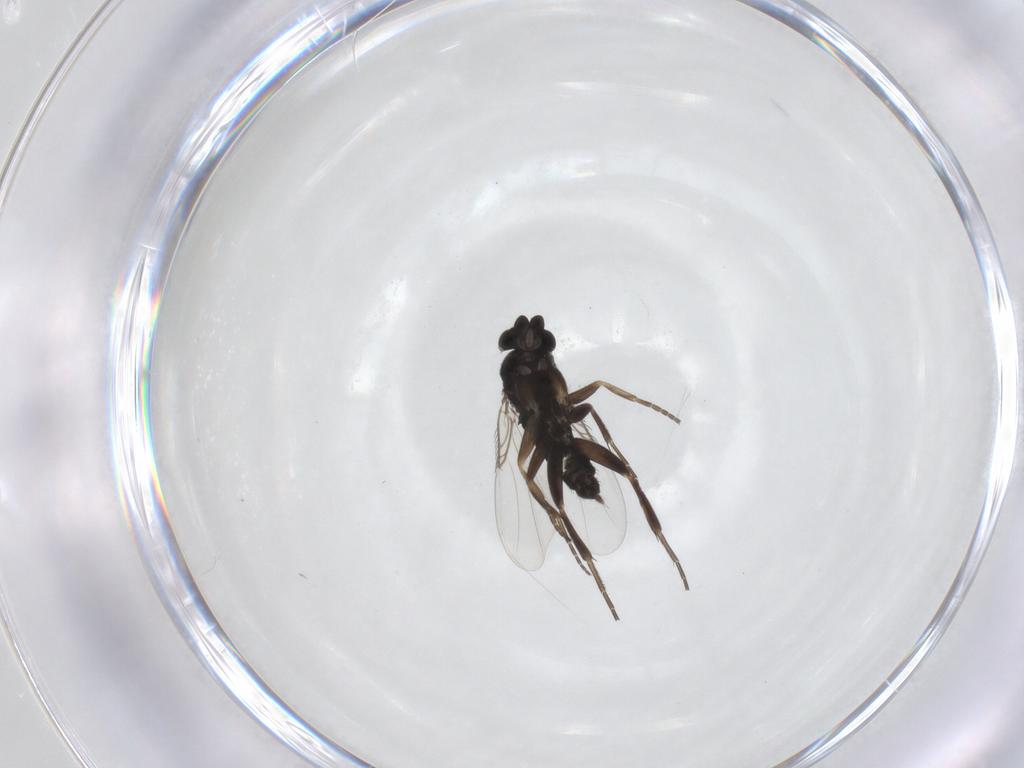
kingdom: Animalia
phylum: Arthropoda
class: Insecta
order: Diptera
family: Phoridae
